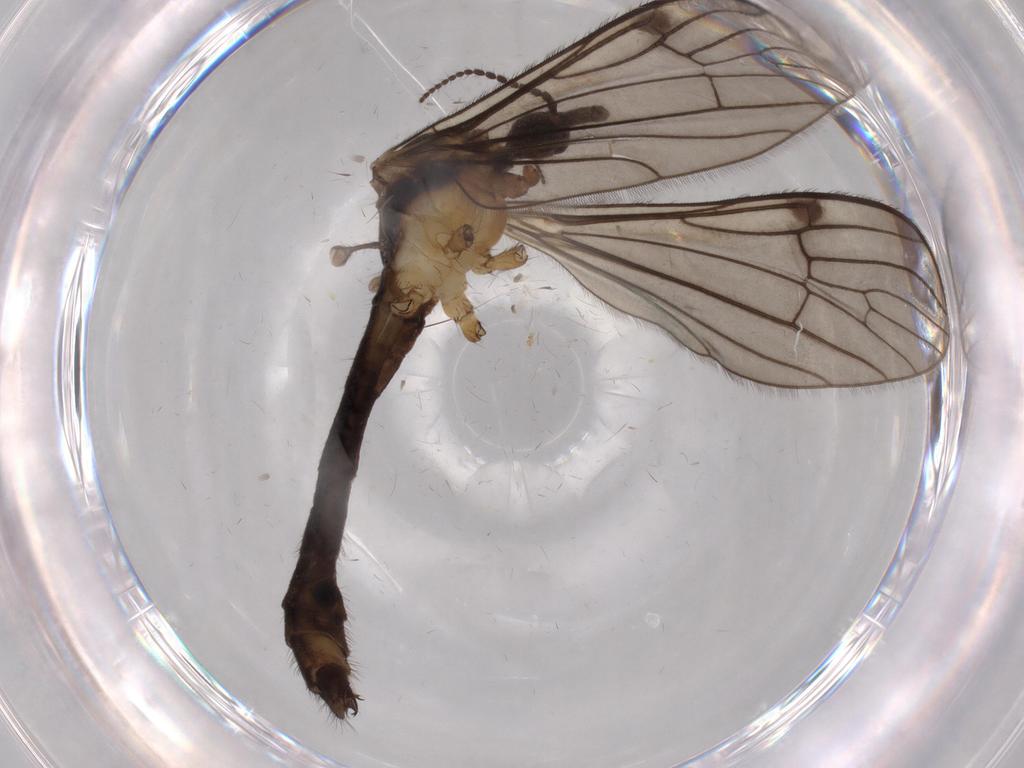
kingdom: Animalia
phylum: Arthropoda
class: Insecta
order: Diptera
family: Limoniidae
